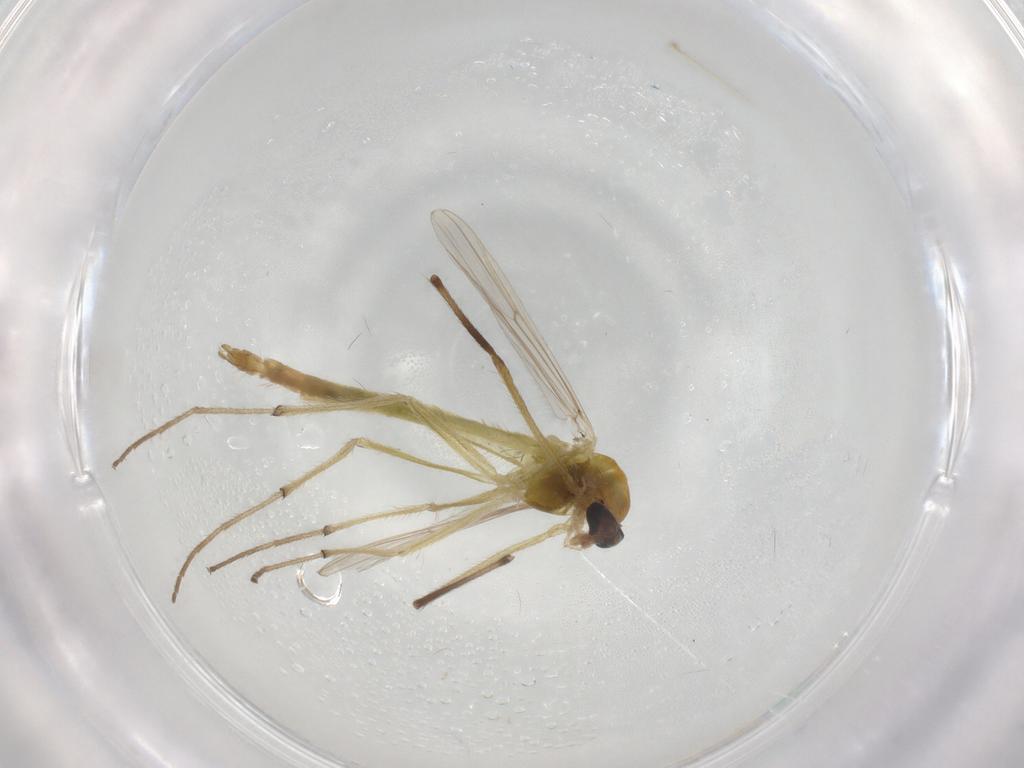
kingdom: Animalia
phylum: Arthropoda
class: Insecta
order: Diptera
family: Chironomidae
